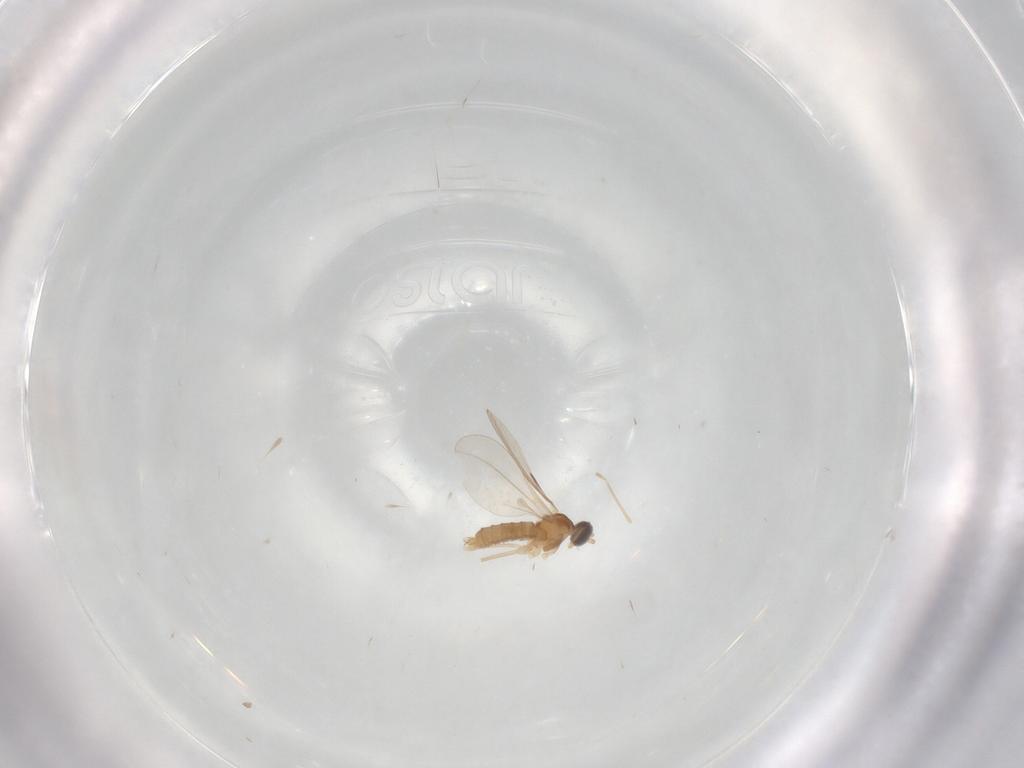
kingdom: Animalia
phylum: Arthropoda
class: Insecta
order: Diptera
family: Cecidomyiidae
